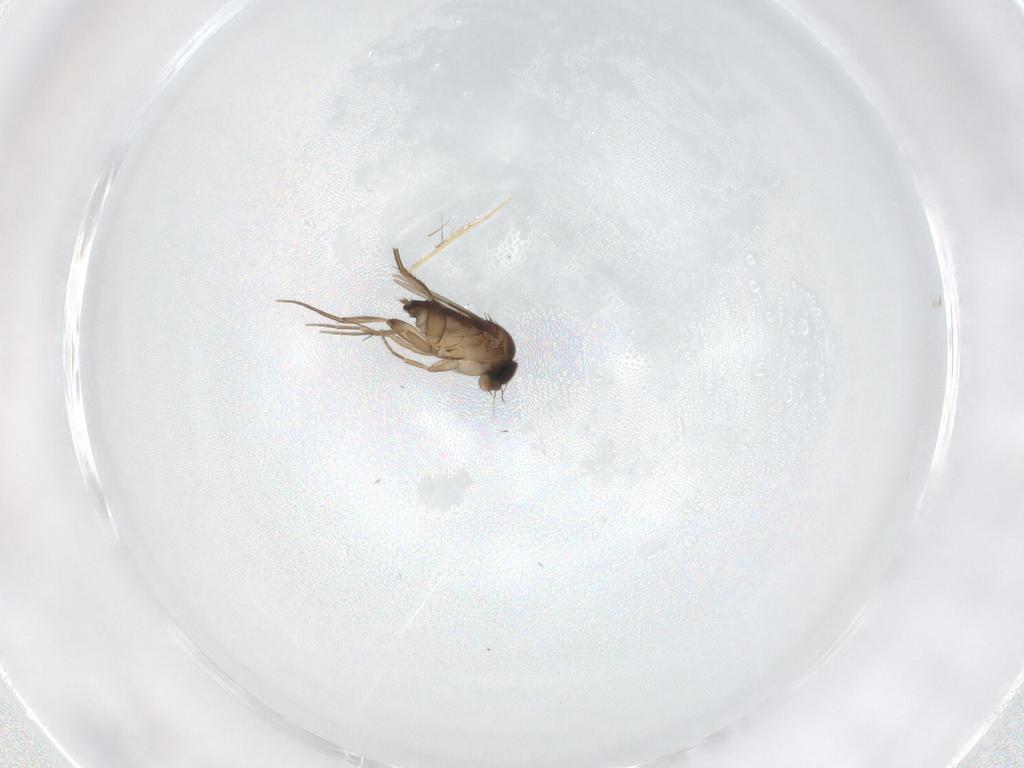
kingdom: Animalia
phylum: Arthropoda
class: Insecta
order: Diptera
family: Phoridae
